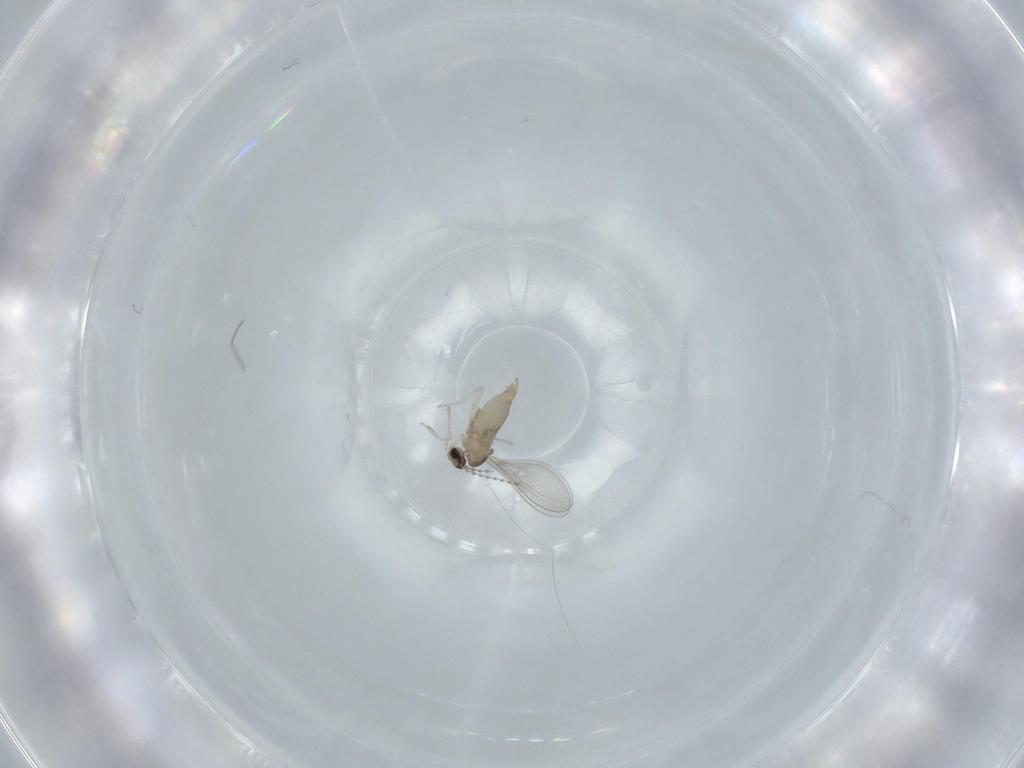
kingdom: Animalia
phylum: Arthropoda
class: Insecta
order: Diptera
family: Cecidomyiidae
